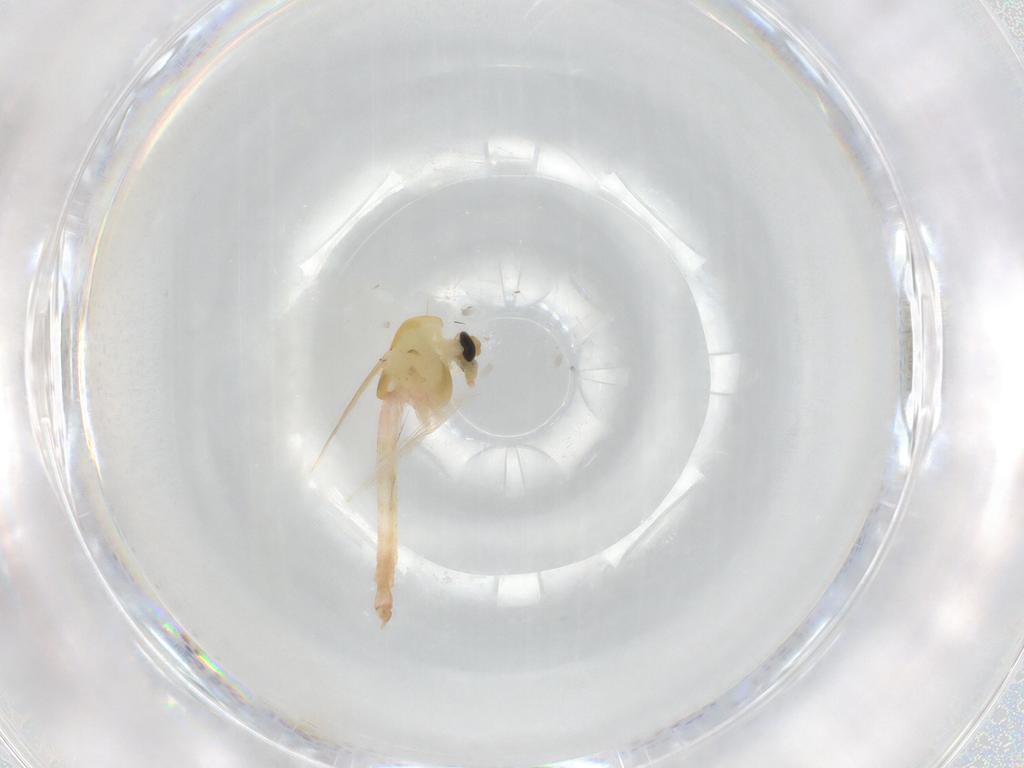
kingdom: Animalia
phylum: Arthropoda
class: Insecta
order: Diptera
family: Chironomidae
